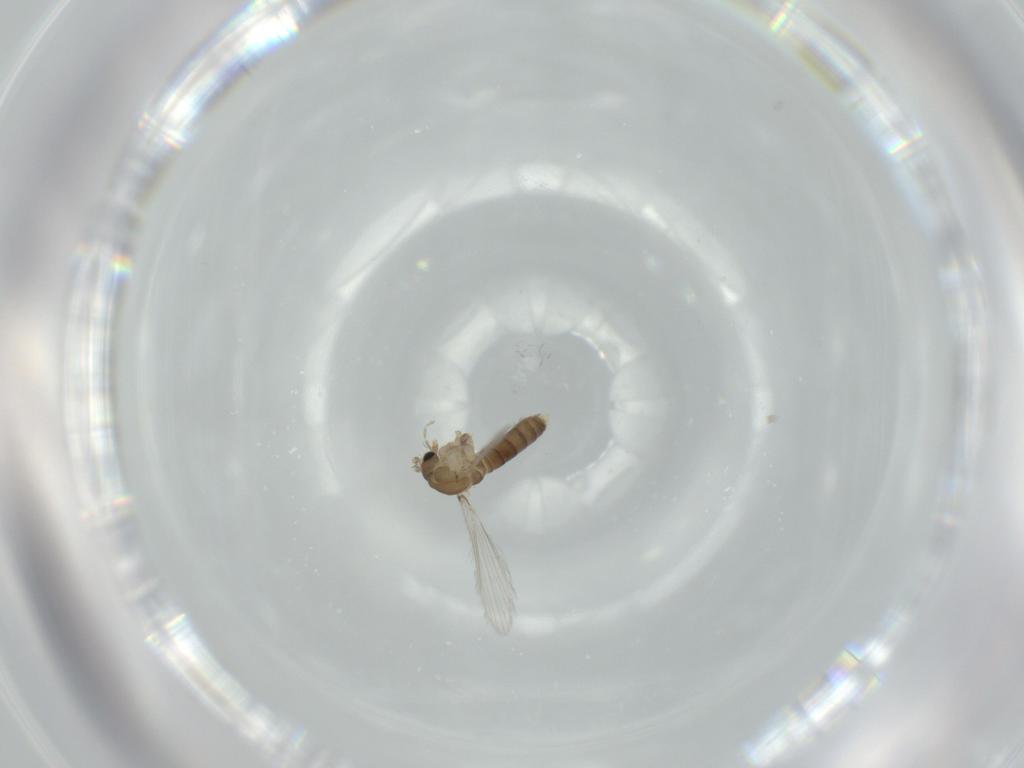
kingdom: Animalia
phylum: Arthropoda
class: Insecta
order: Diptera
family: Psychodidae
